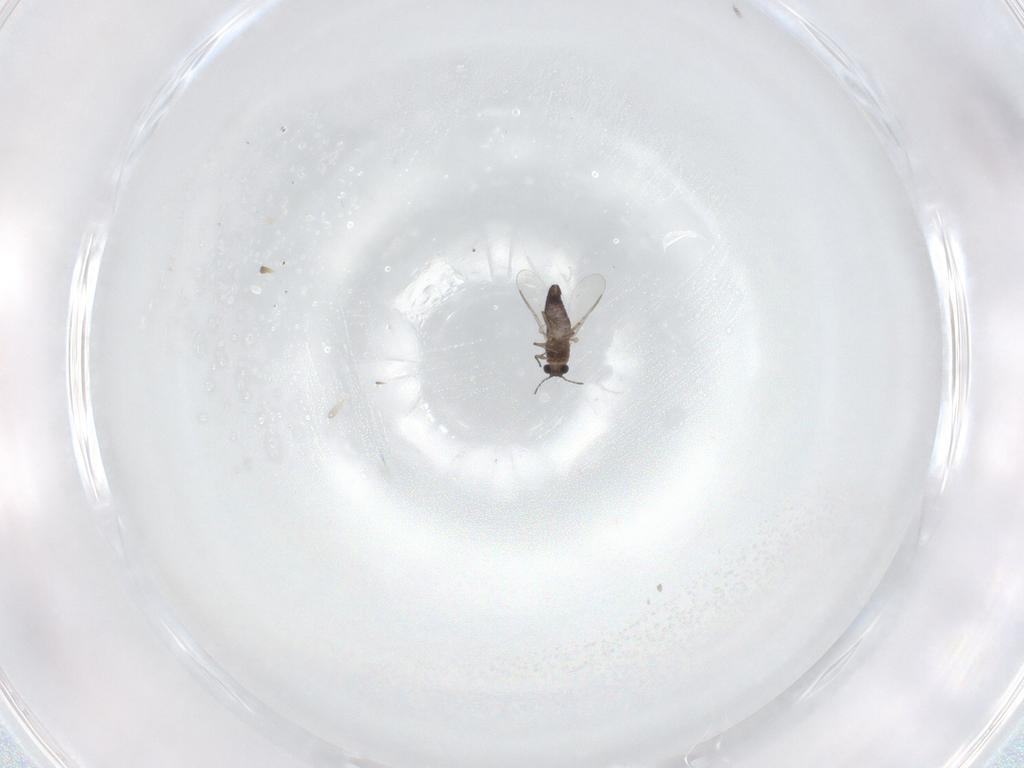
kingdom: Animalia
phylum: Arthropoda
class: Insecta
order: Diptera
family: Chironomidae
